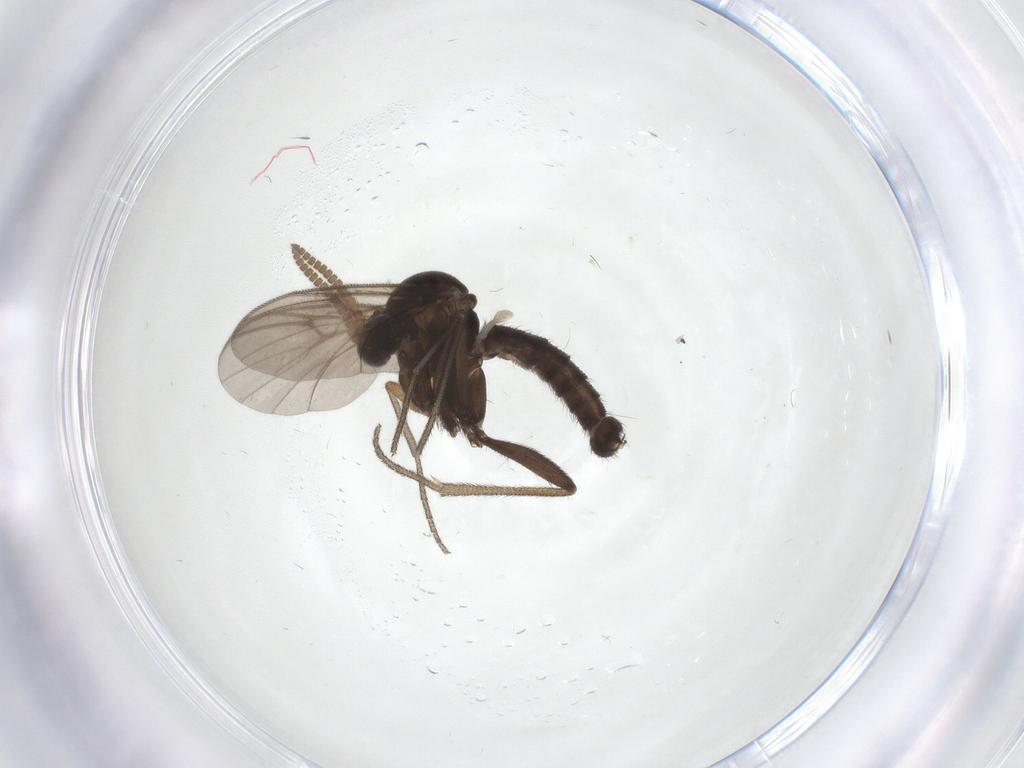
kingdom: Animalia
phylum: Arthropoda
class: Insecta
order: Diptera
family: Mycetophilidae
